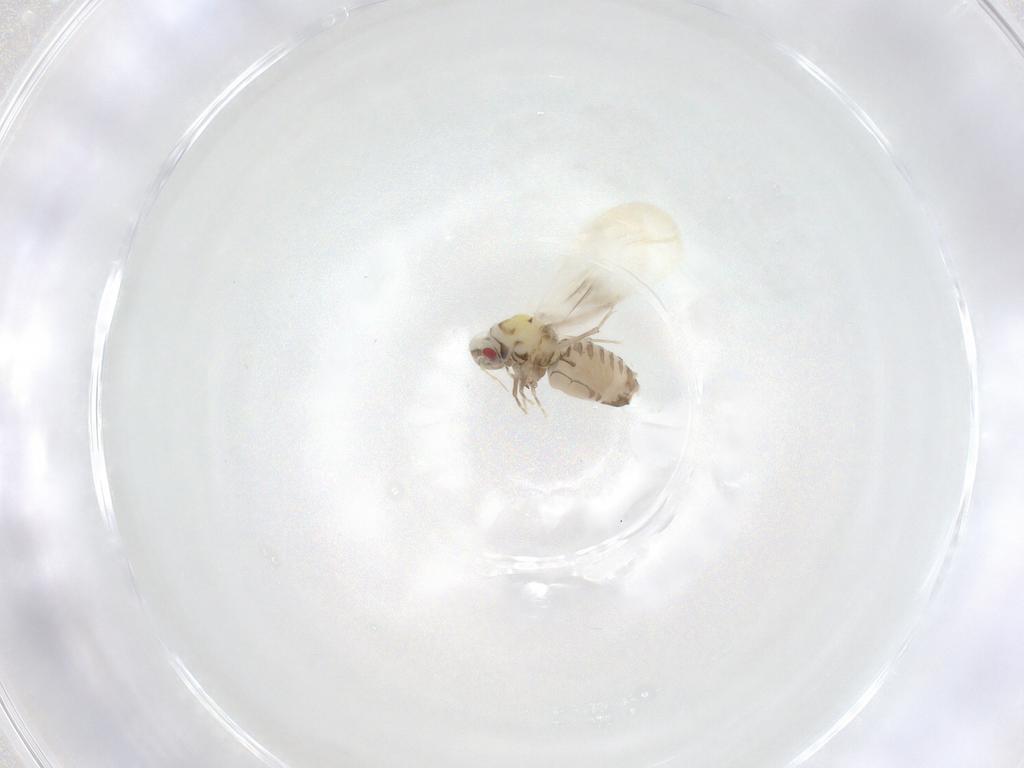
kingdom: Animalia
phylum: Arthropoda
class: Insecta
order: Hemiptera
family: Aleyrodidae
